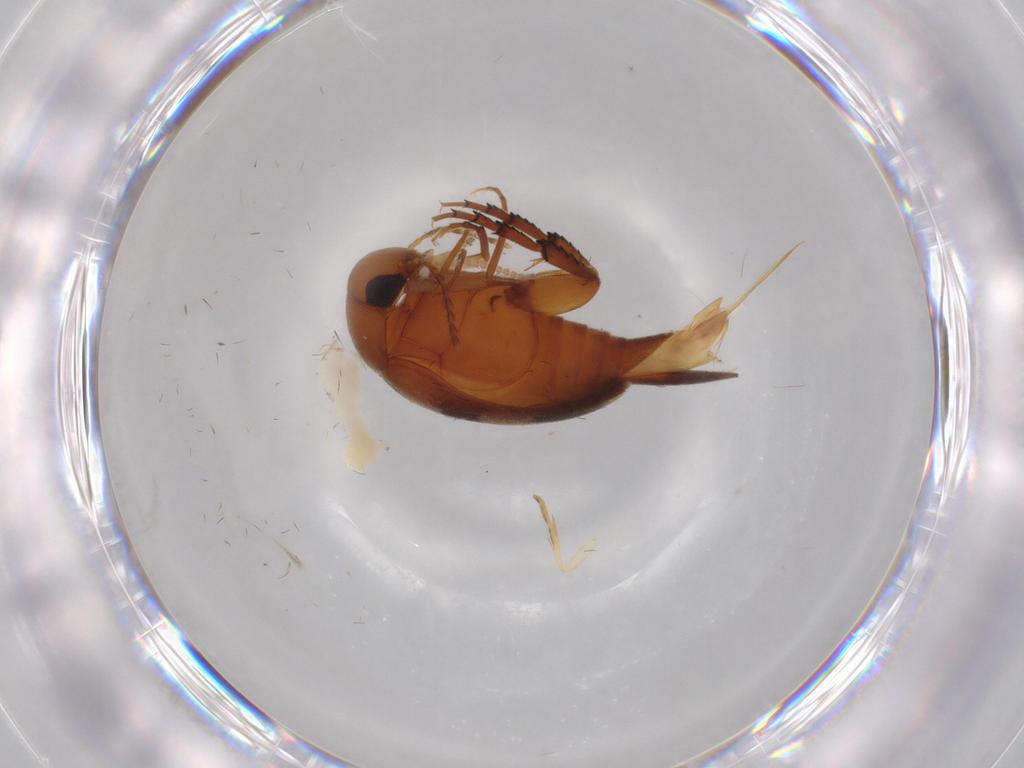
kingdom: Animalia
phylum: Arthropoda
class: Insecta
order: Coleoptera
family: Mordellidae
